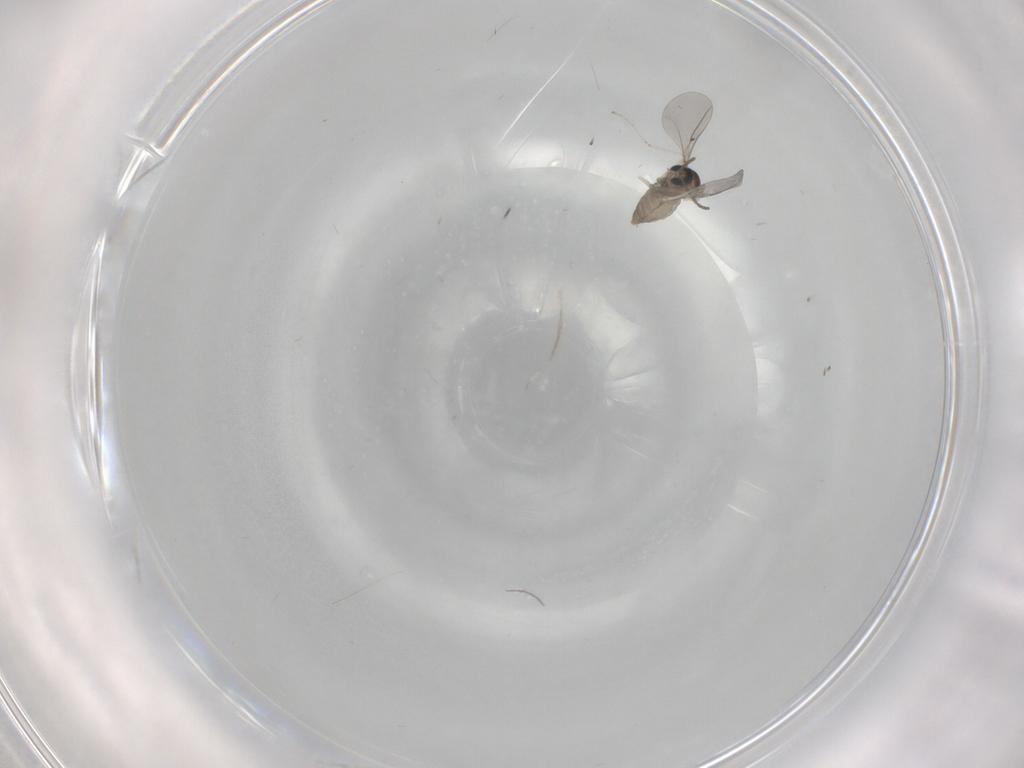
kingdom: Animalia
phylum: Arthropoda
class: Insecta
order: Diptera
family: Cecidomyiidae
